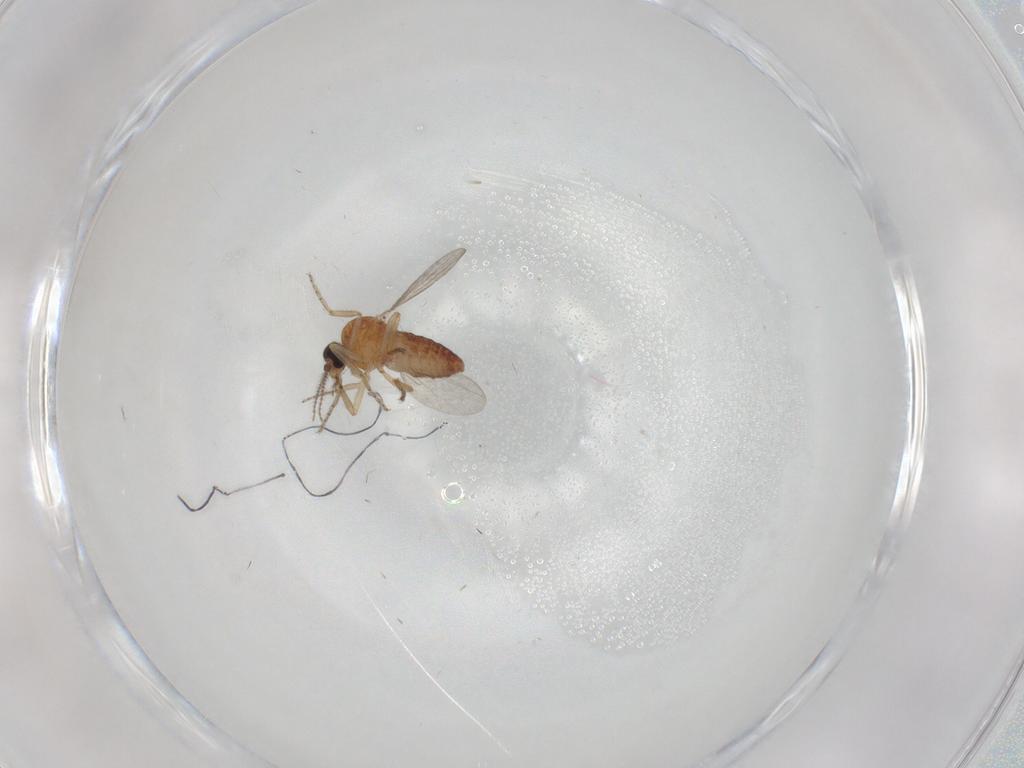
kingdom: Animalia
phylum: Arthropoda
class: Insecta
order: Diptera
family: Ceratopogonidae
